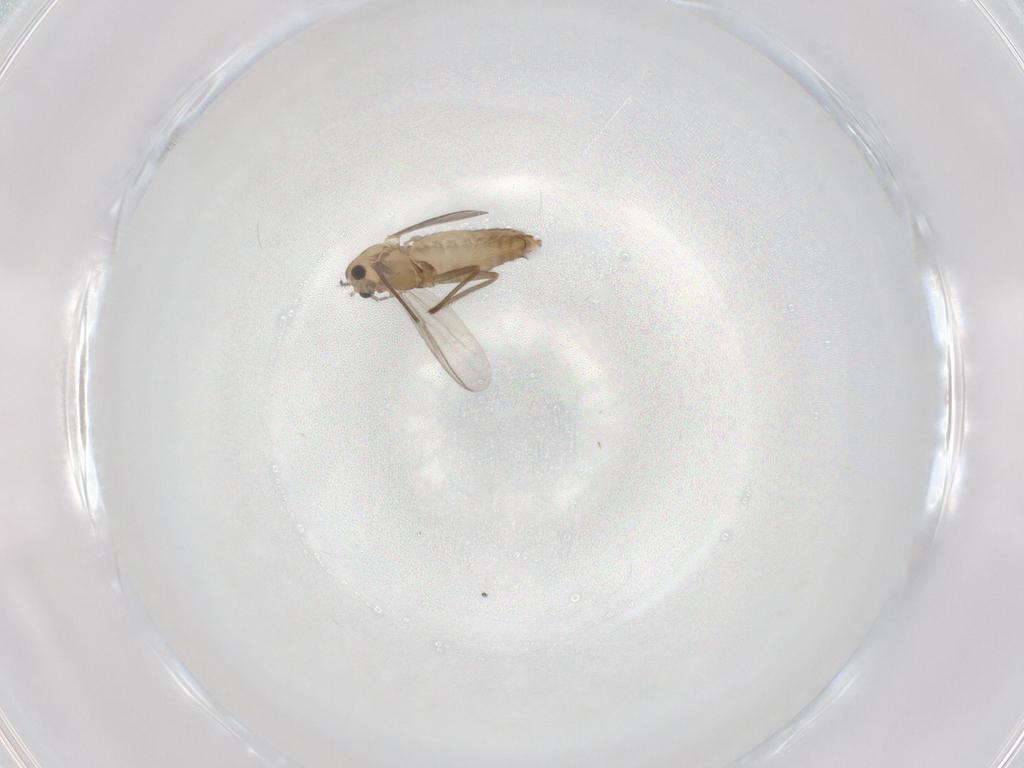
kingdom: Animalia
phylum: Arthropoda
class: Insecta
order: Diptera
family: Chironomidae
